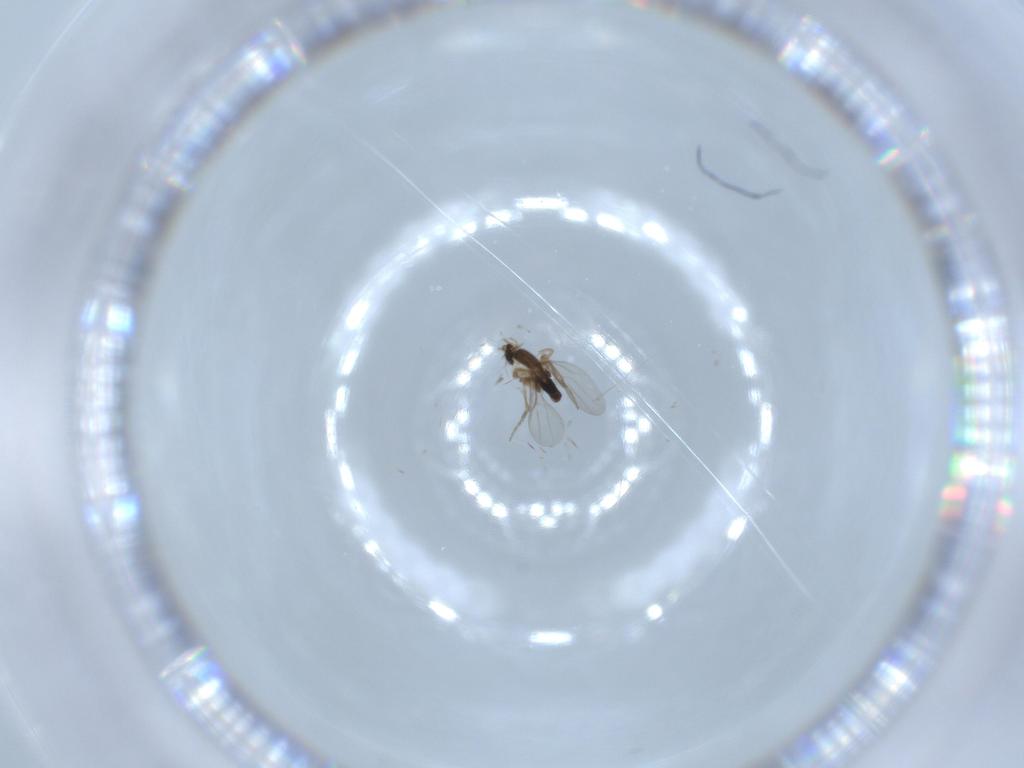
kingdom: Animalia
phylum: Arthropoda
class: Insecta
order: Diptera
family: Phoridae
